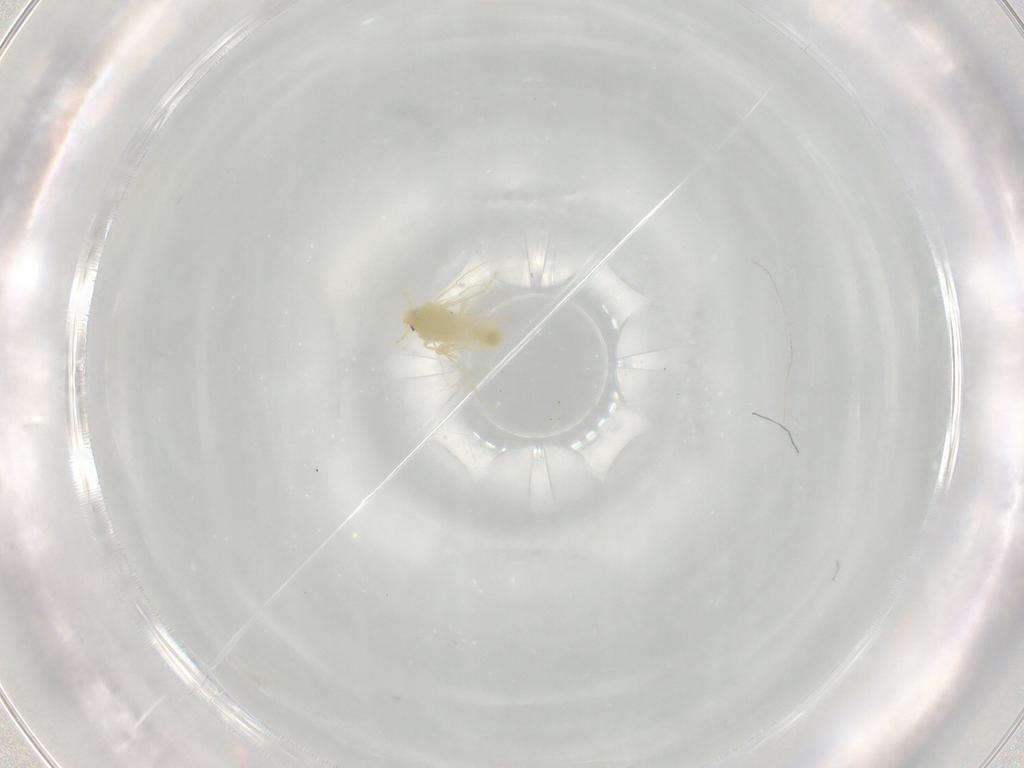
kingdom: Animalia
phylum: Arthropoda
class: Insecta
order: Hemiptera
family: Aleyrodidae
